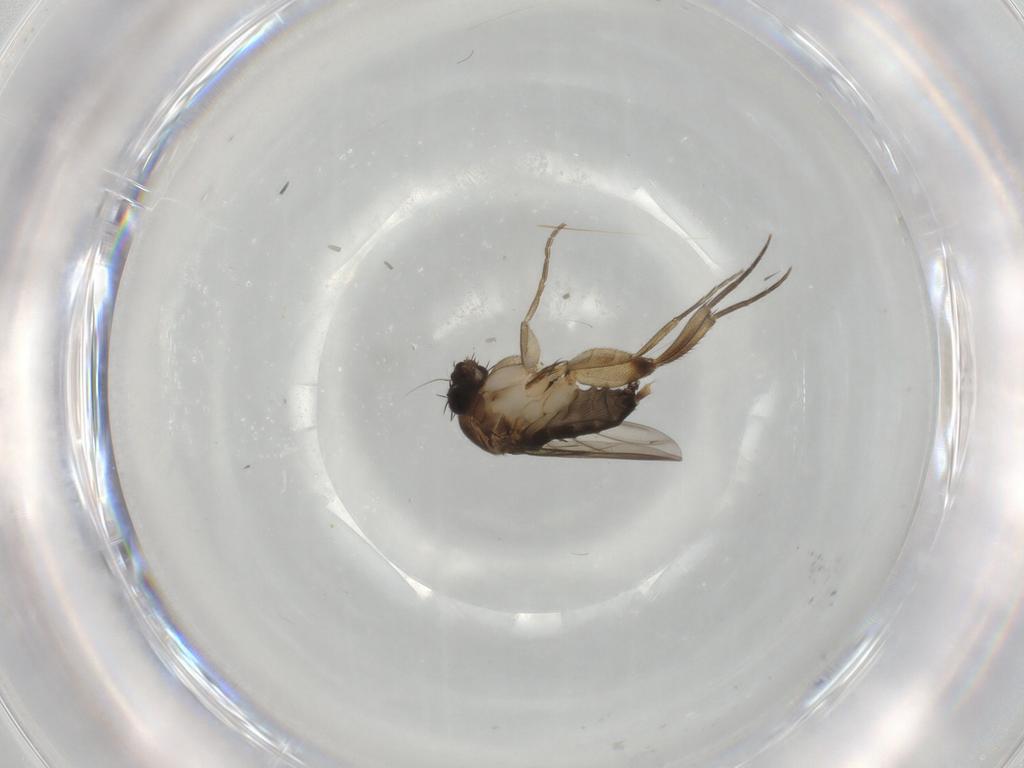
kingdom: Animalia
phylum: Arthropoda
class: Insecta
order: Diptera
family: Phoridae
